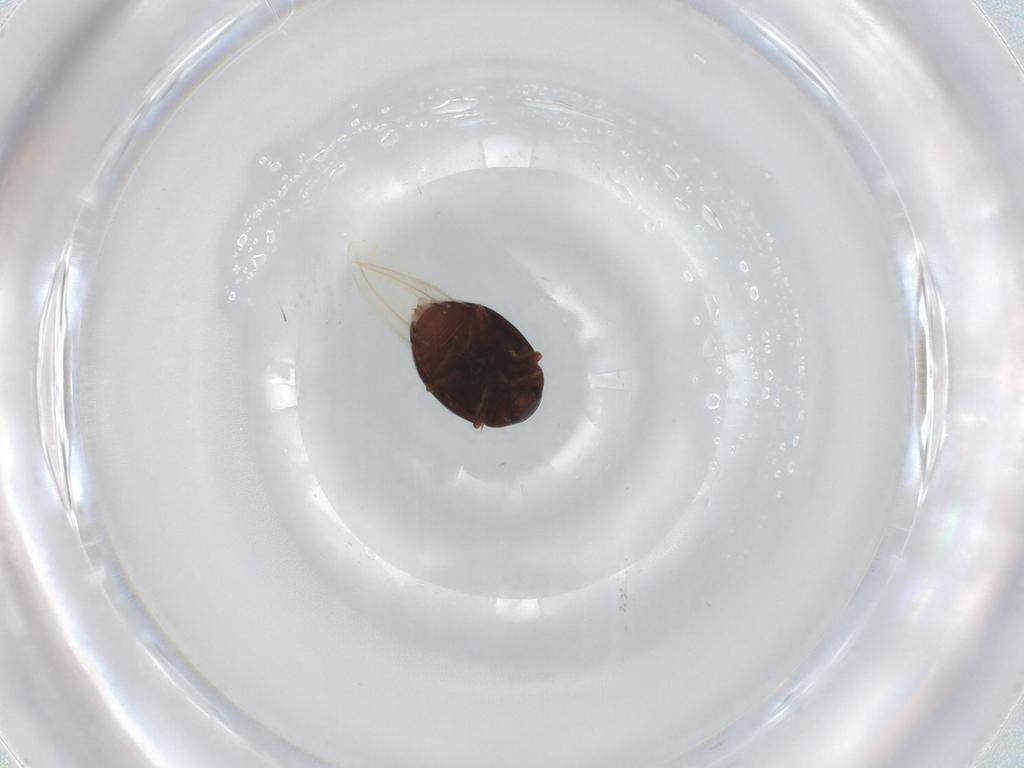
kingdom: Animalia
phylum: Arthropoda
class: Insecta
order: Coleoptera
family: Coccinellidae
